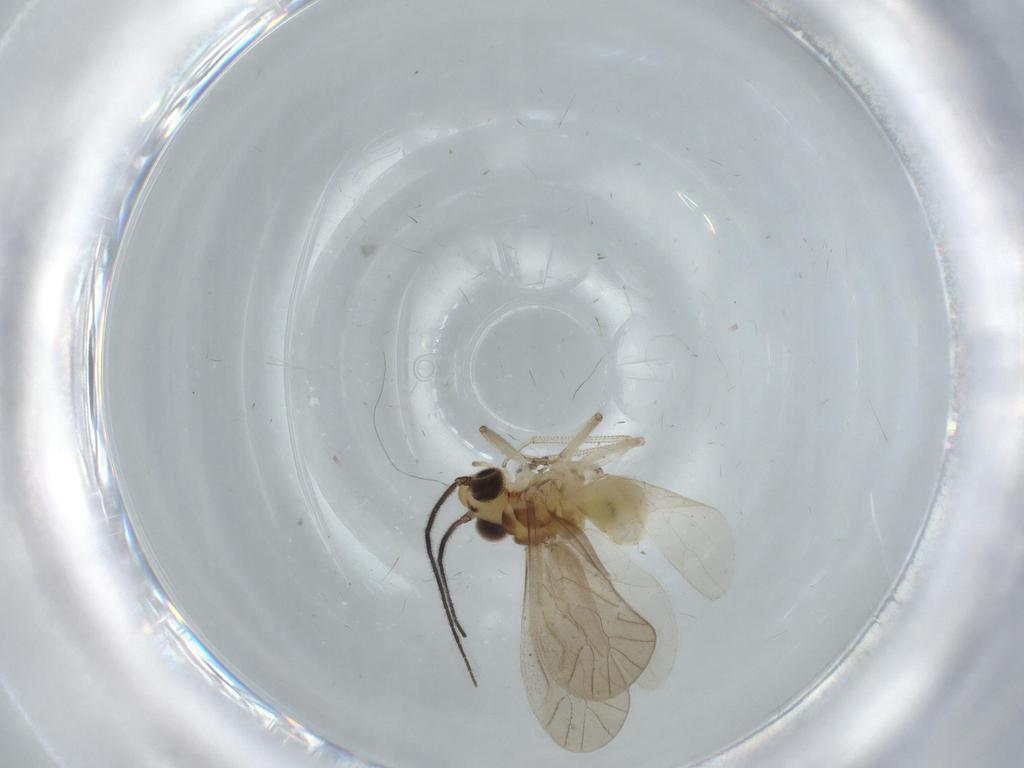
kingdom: Animalia
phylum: Arthropoda
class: Insecta
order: Psocodea
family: Caeciliusidae
